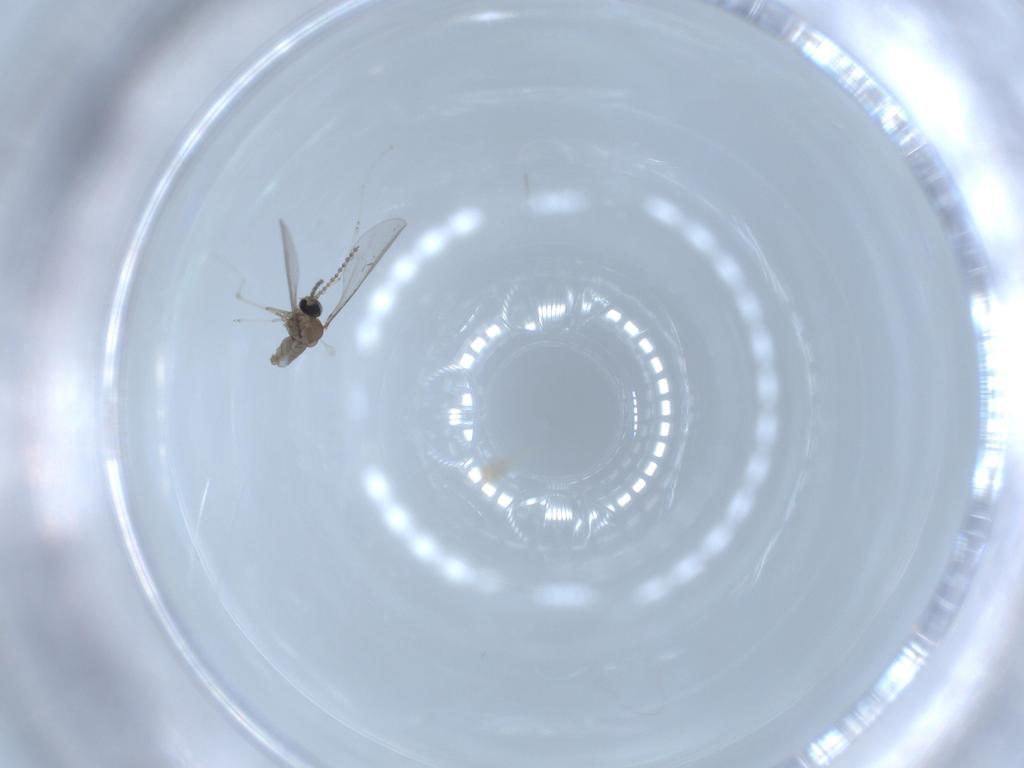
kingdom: Animalia
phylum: Arthropoda
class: Insecta
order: Diptera
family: Cecidomyiidae
